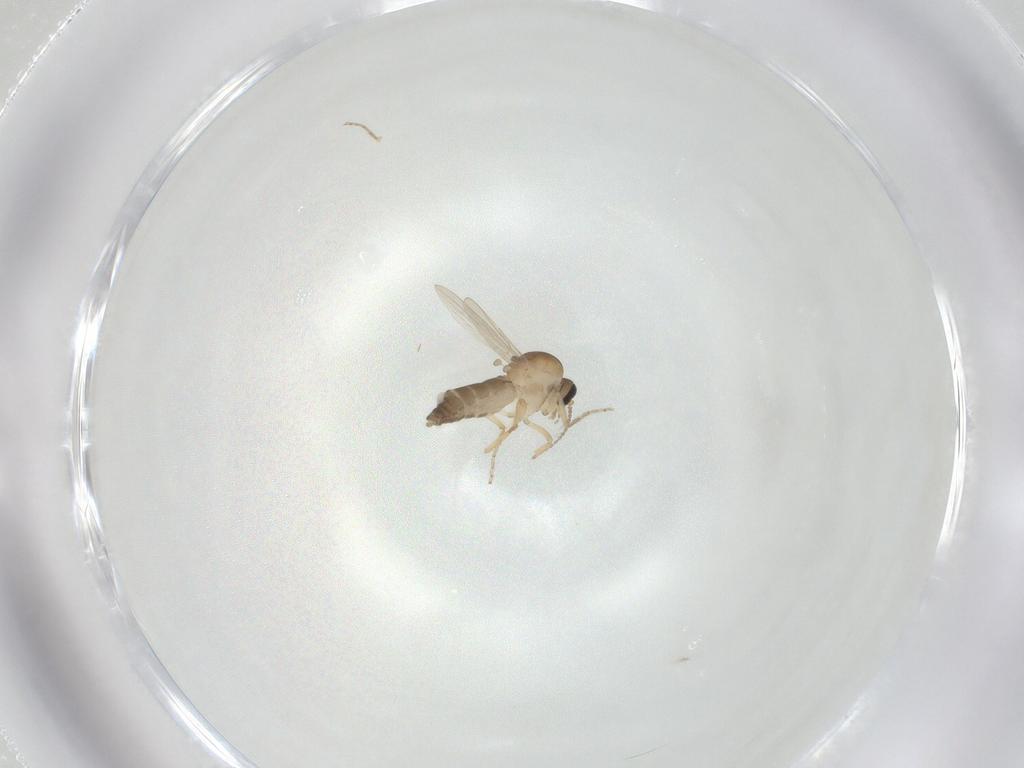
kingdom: Animalia
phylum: Arthropoda
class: Insecta
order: Diptera
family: Ceratopogonidae
